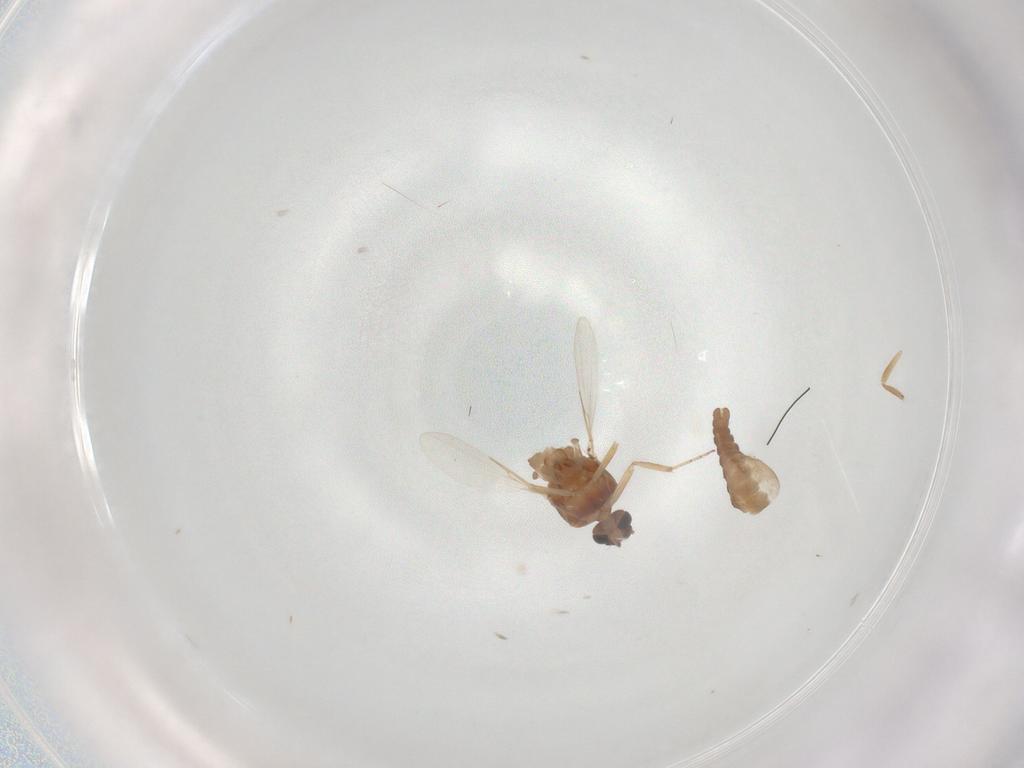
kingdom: Animalia
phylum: Arthropoda
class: Insecta
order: Diptera
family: Ceratopogonidae
